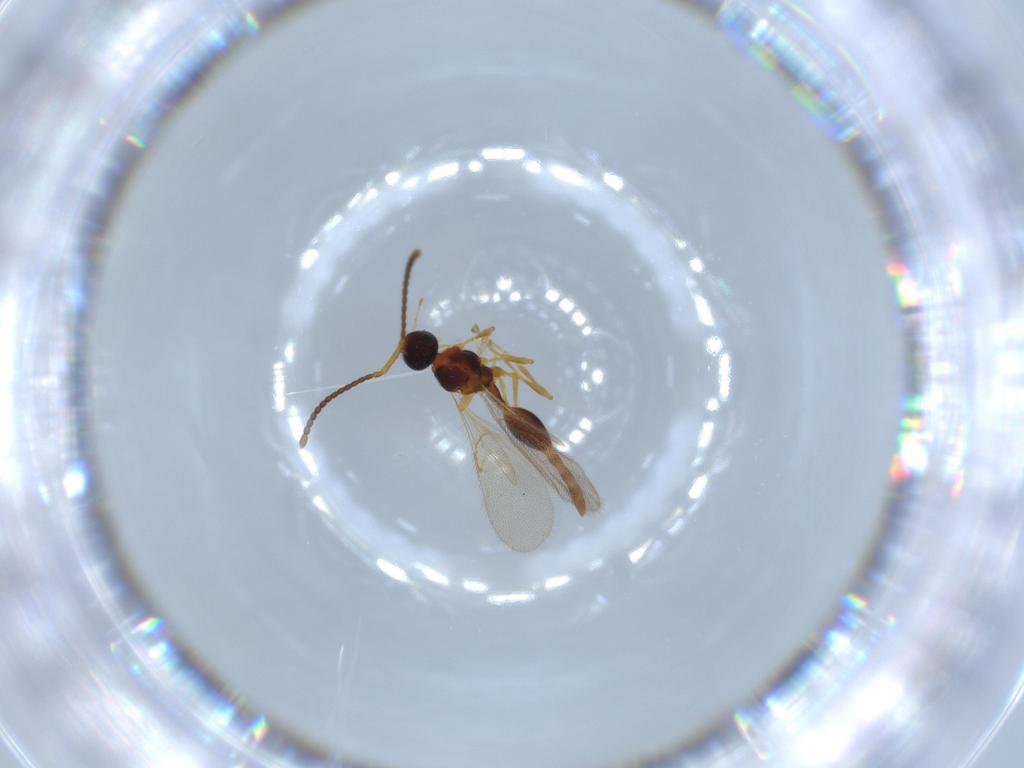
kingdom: Animalia
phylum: Arthropoda
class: Insecta
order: Hymenoptera
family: Diapriidae
